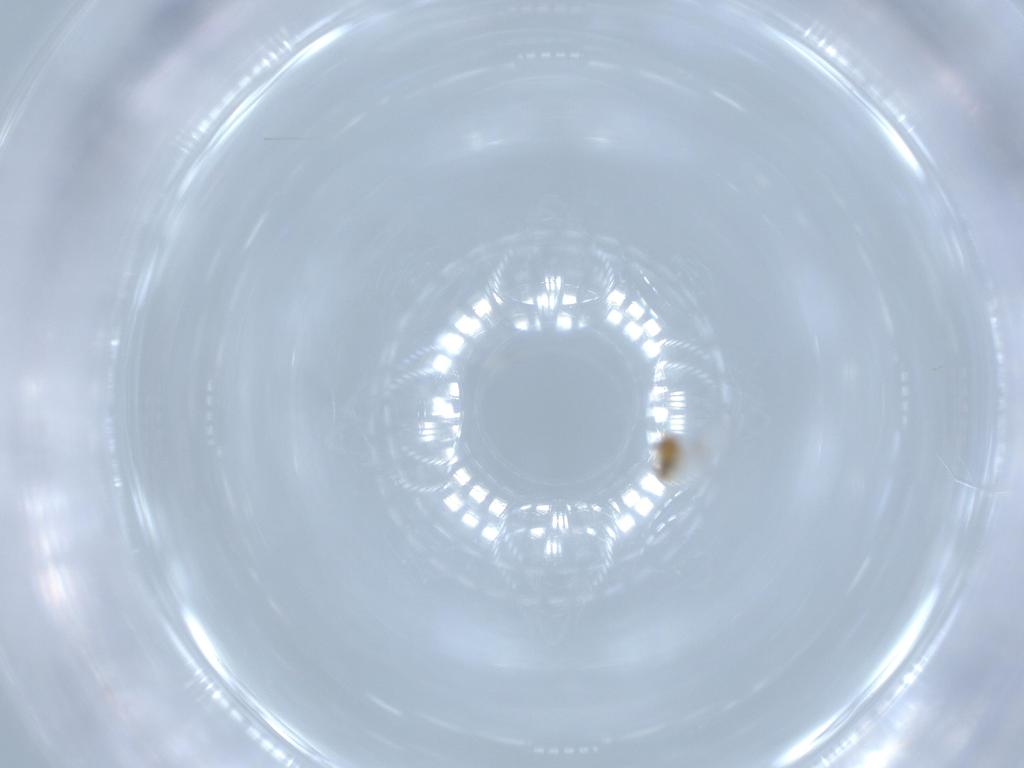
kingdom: Animalia
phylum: Arthropoda
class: Insecta
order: Hymenoptera
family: Trichogrammatidae
